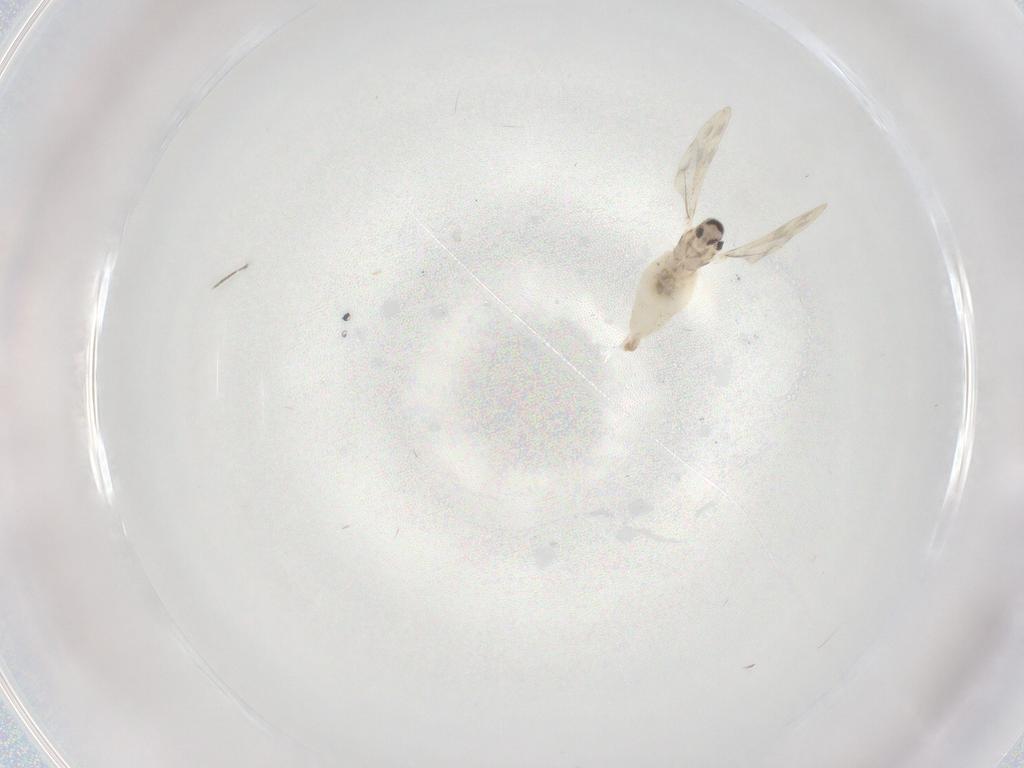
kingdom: Animalia
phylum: Arthropoda
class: Insecta
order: Diptera
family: Cecidomyiidae
